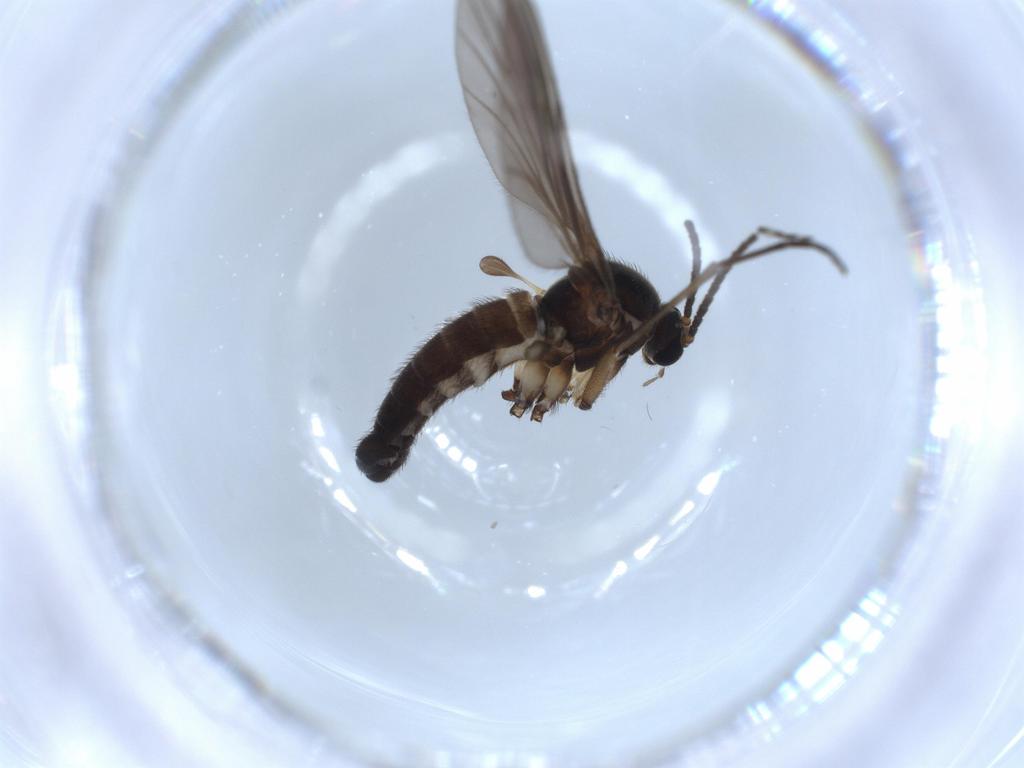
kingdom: Animalia
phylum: Arthropoda
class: Insecta
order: Diptera
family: Sciaridae
